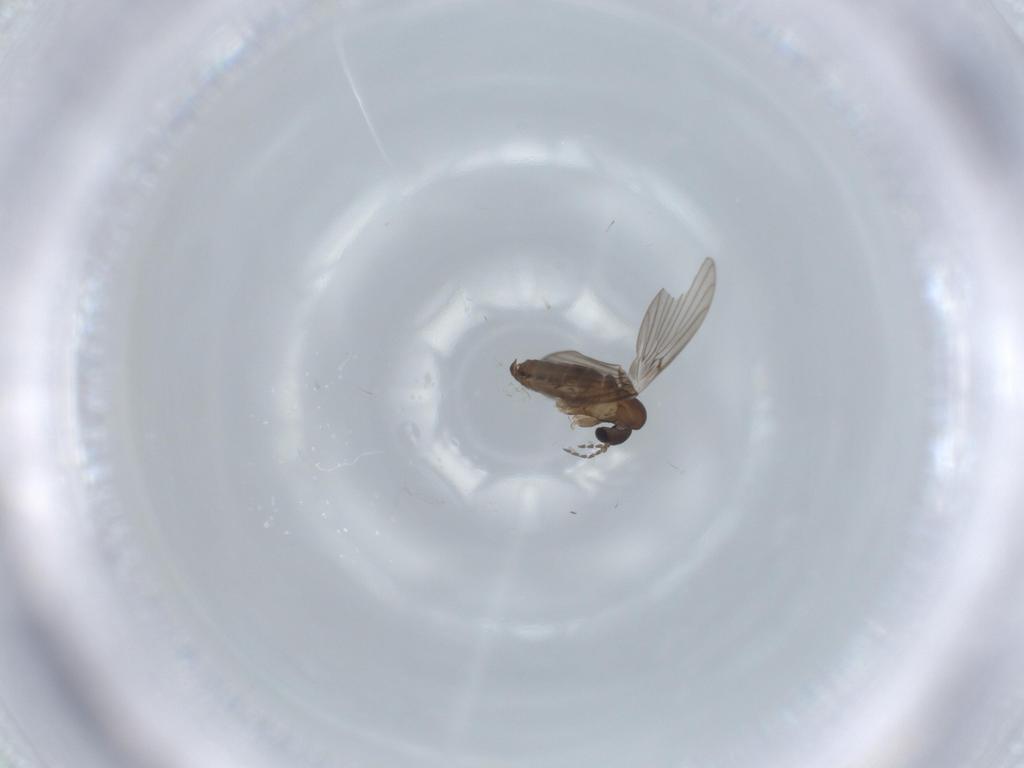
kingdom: Animalia
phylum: Arthropoda
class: Insecta
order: Diptera
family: Psychodidae
